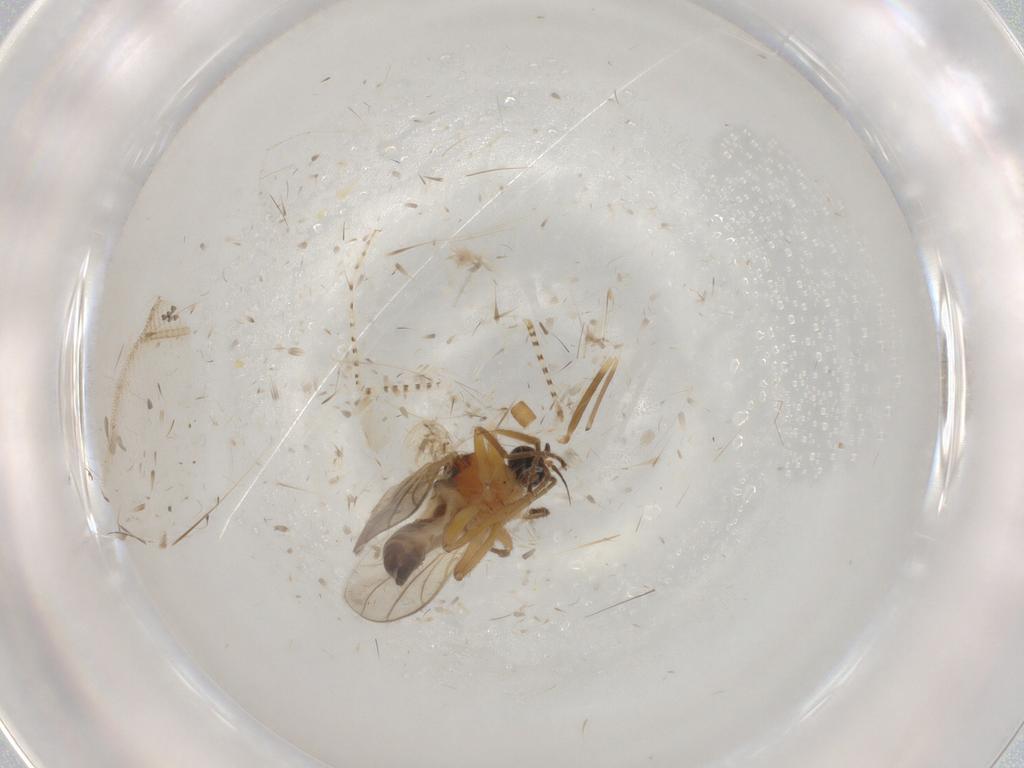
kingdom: Animalia
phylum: Arthropoda
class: Insecta
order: Diptera
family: Hybotidae
